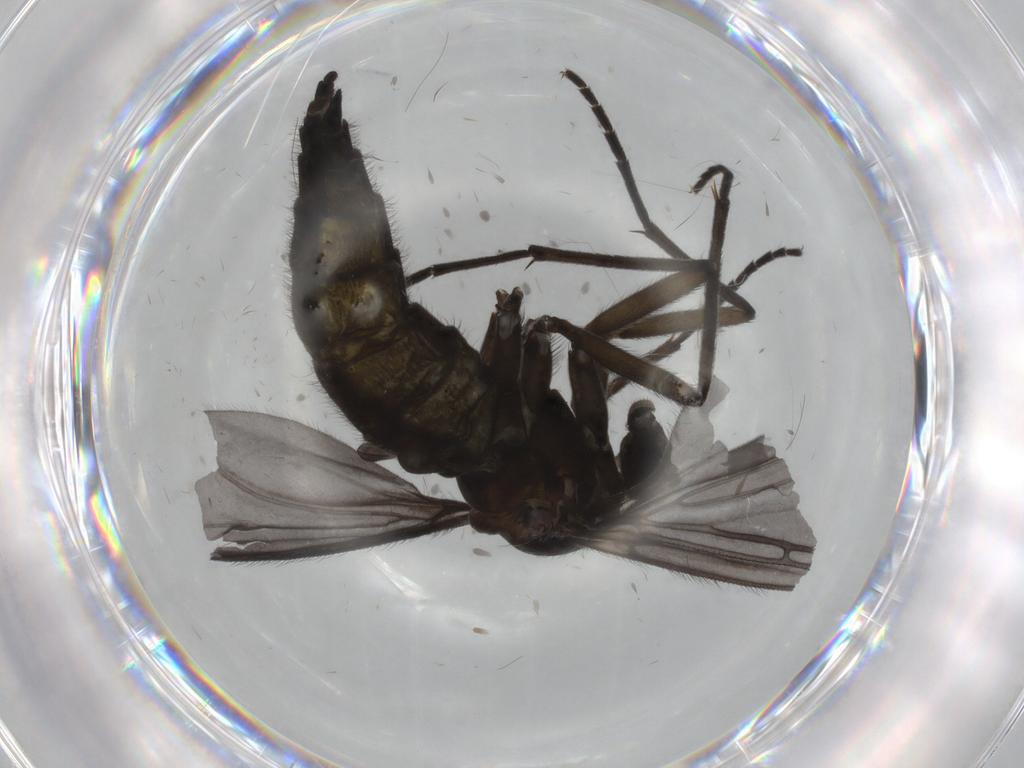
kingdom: Animalia
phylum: Arthropoda
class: Insecta
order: Diptera
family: Sciaridae
